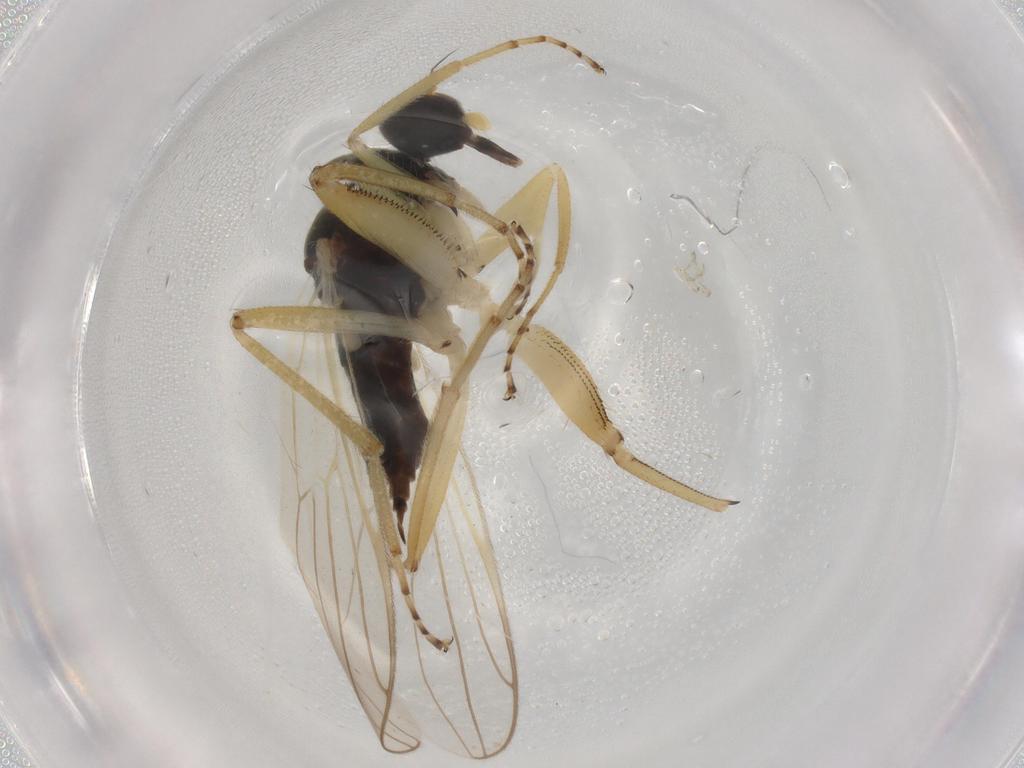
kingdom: Animalia
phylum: Arthropoda
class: Insecta
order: Diptera
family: Hybotidae
